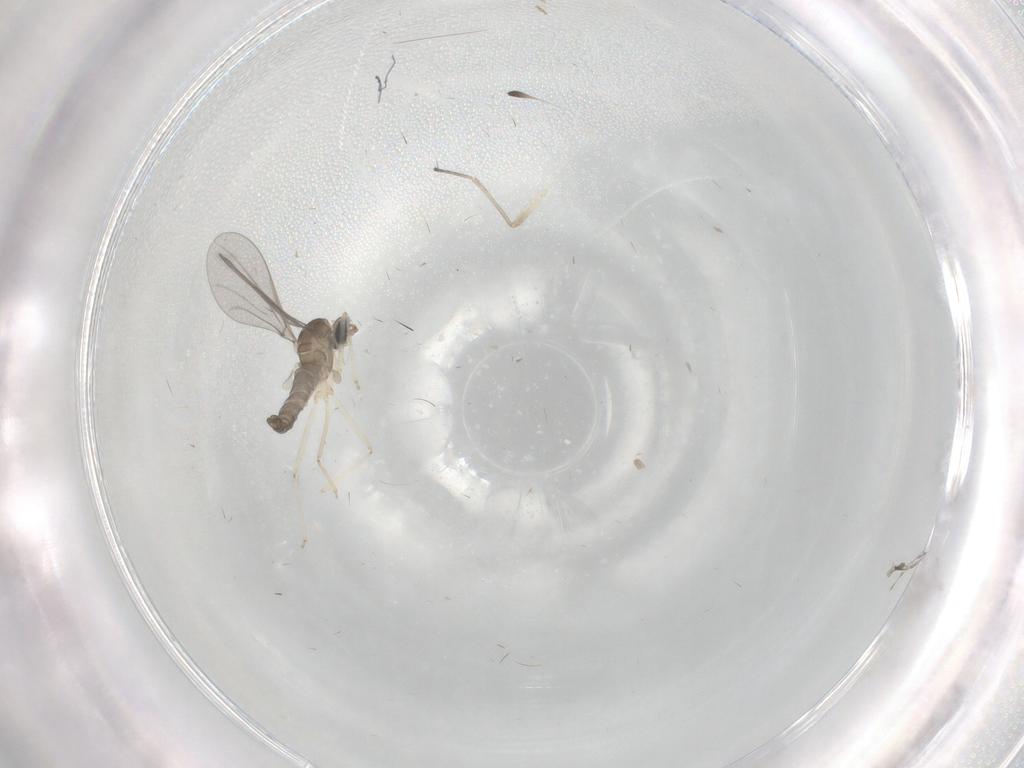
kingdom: Animalia
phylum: Arthropoda
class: Insecta
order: Diptera
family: Cecidomyiidae
